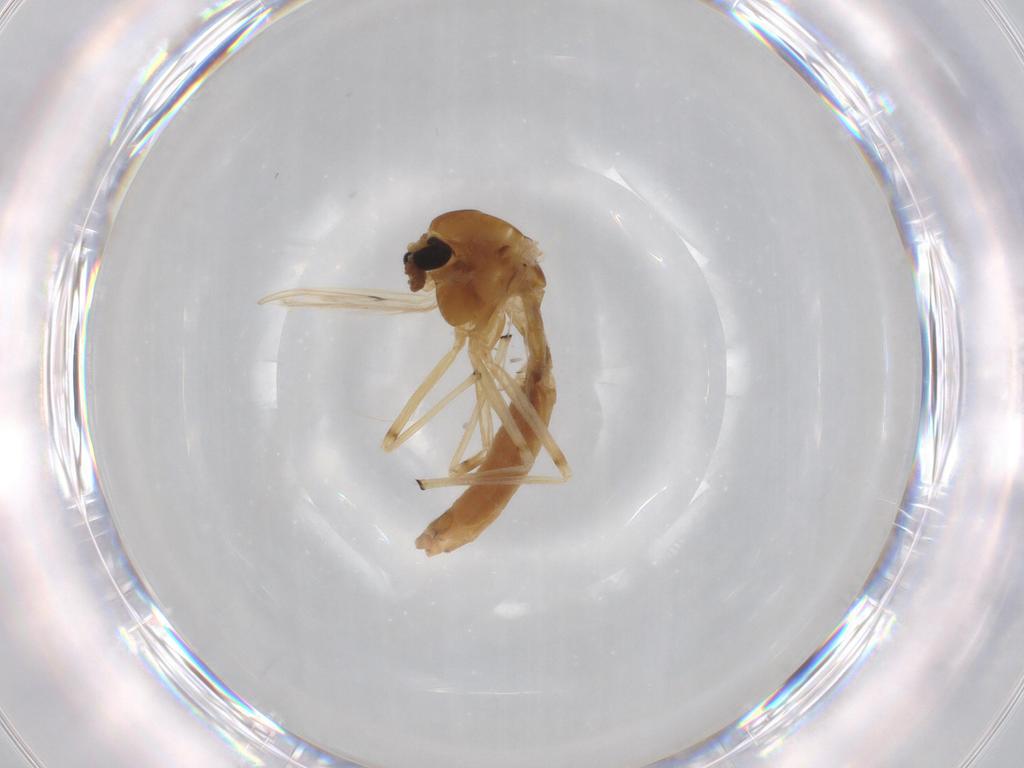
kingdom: Animalia
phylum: Arthropoda
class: Insecta
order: Diptera
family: Chironomidae
